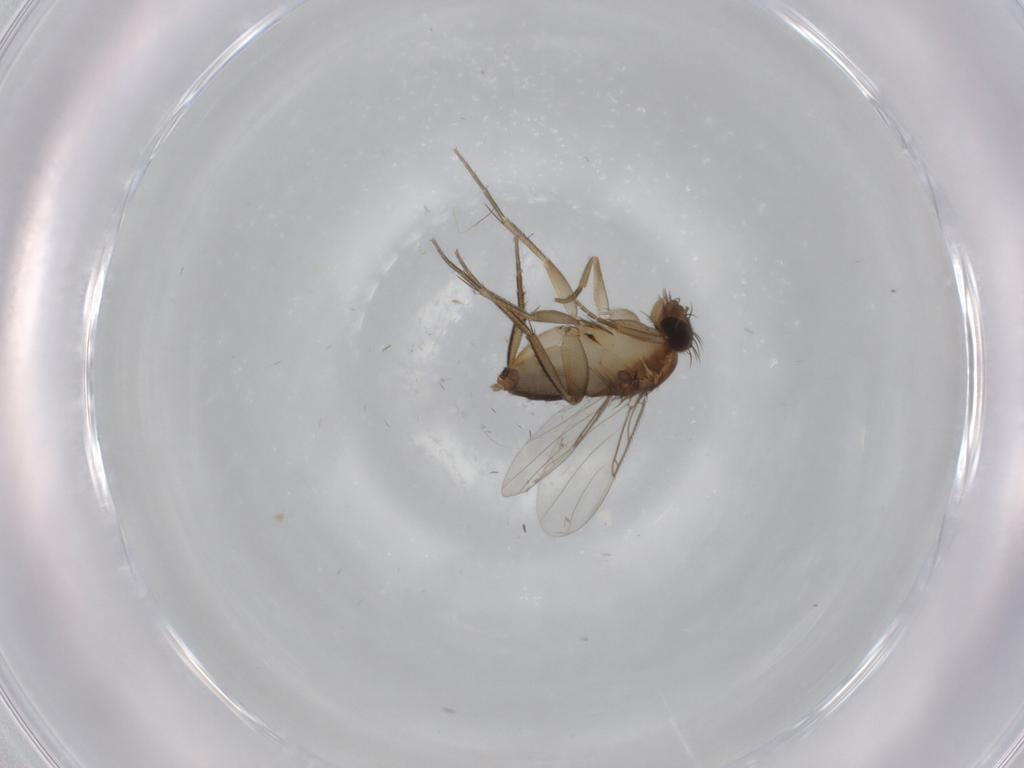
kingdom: Animalia
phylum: Arthropoda
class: Insecta
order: Diptera
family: Phoridae
